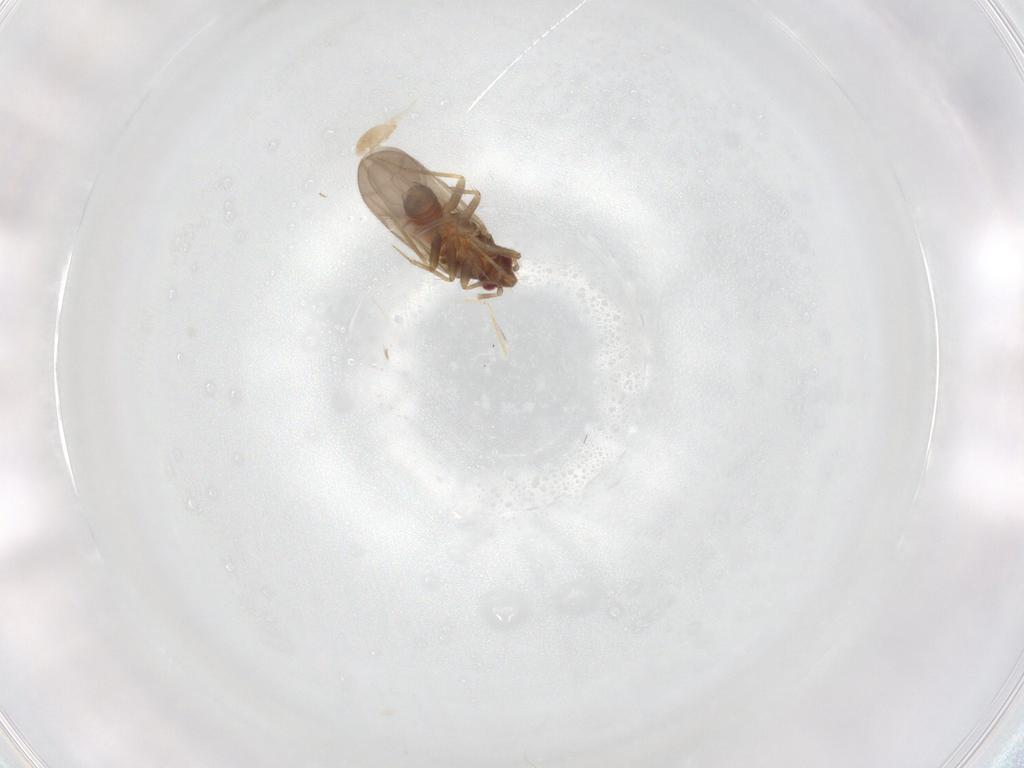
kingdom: Animalia
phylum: Arthropoda
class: Insecta
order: Hemiptera
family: Ceratocombidae
